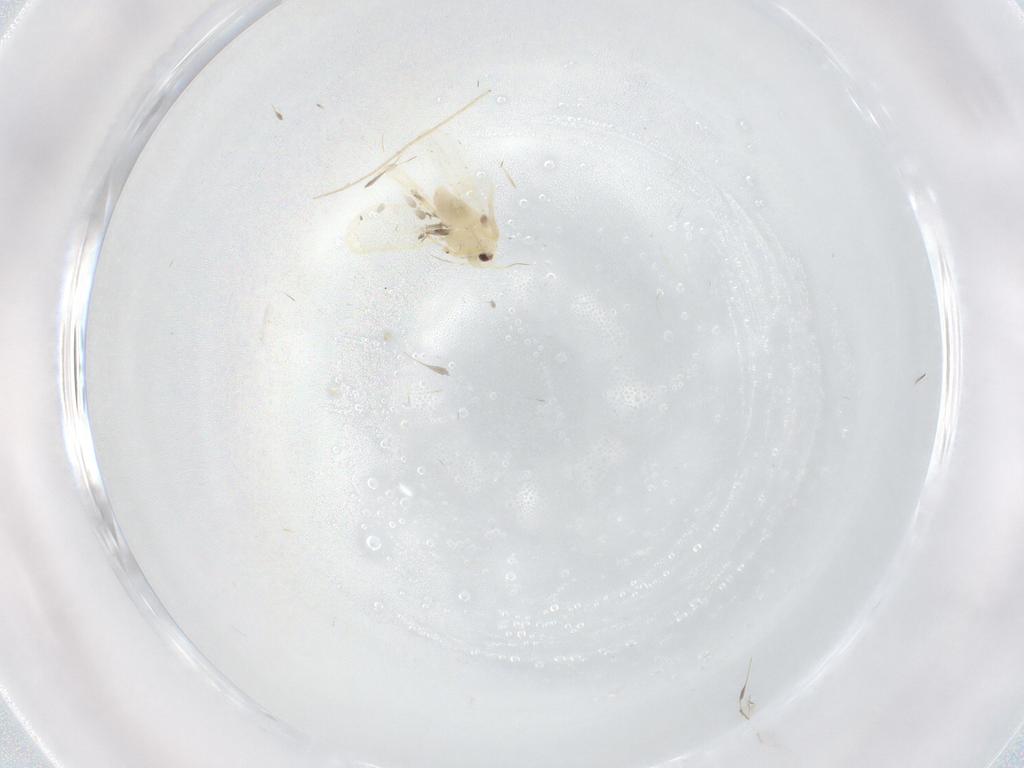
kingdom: Animalia
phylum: Arthropoda
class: Insecta
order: Hemiptera
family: Aleyrodidae
